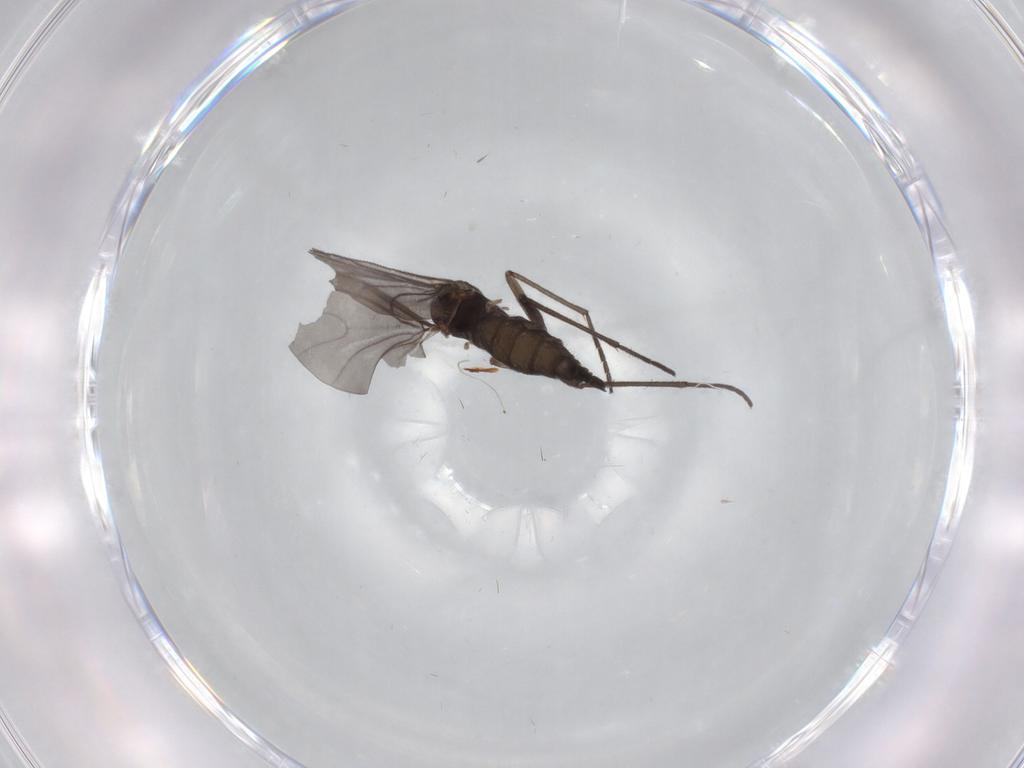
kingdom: Animalia
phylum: Arthropoda
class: Insecta
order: Diptera
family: Sciaridae
